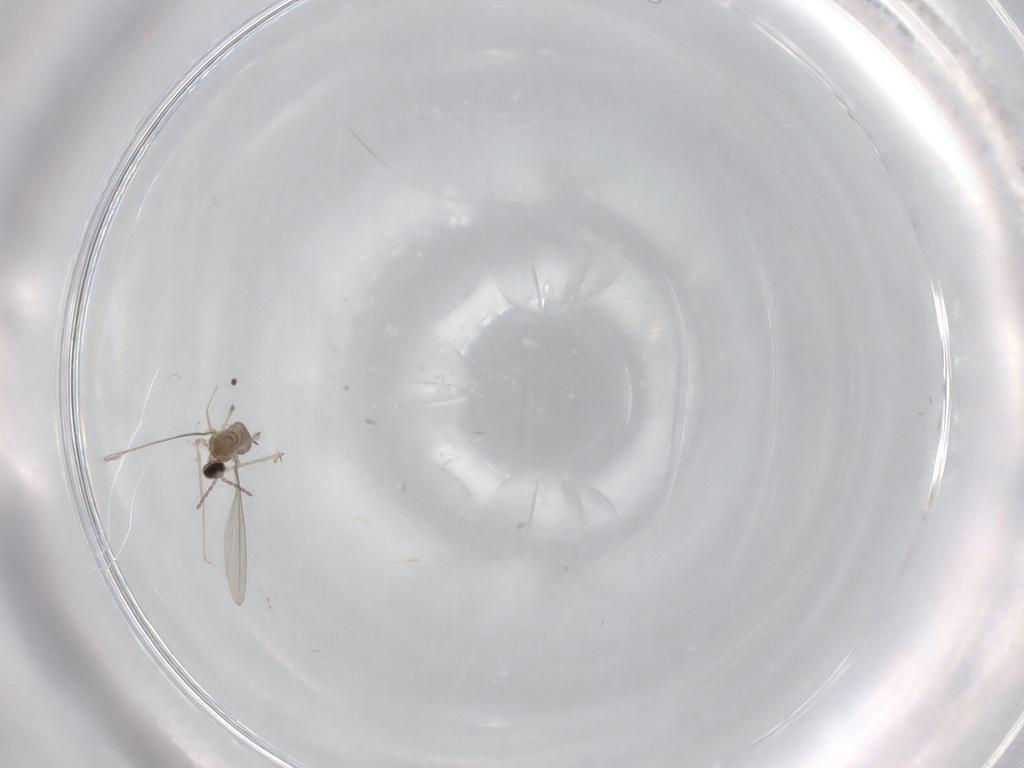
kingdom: Animalia
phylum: Arthropoda
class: Insecta
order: Diptera
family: Cecidomyiidae
